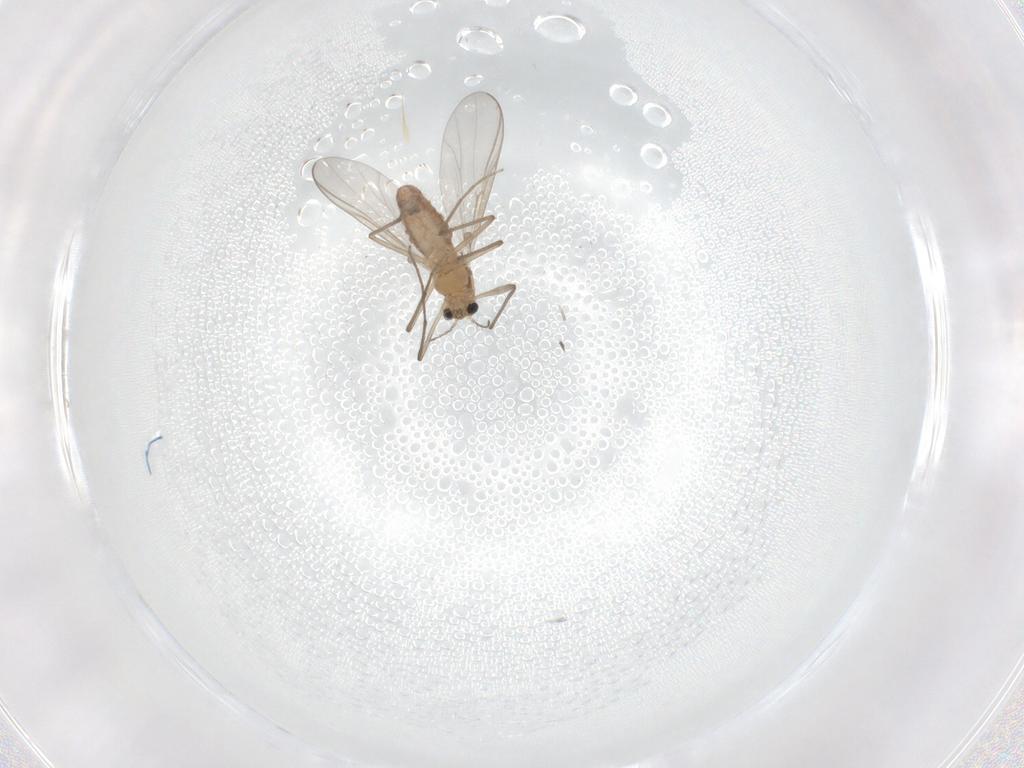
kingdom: Animalia
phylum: Arthropoda
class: Insecta
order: Diptera
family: Chironomidae
